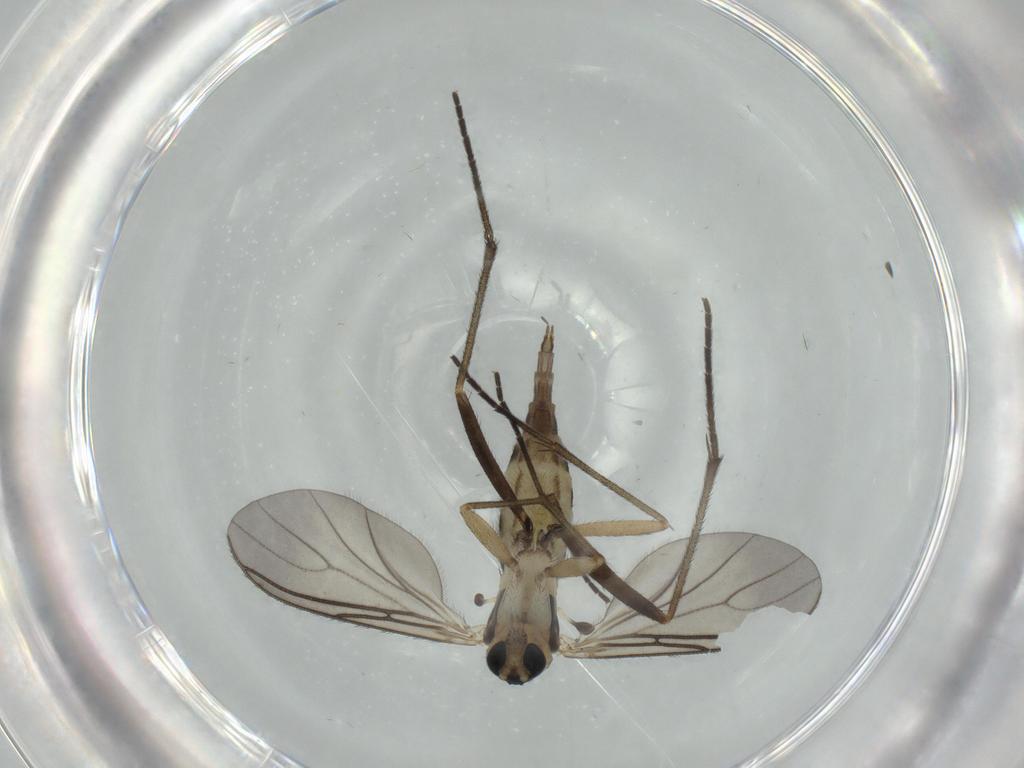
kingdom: Animalia
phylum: Arthropoda
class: Insecta
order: Diptera
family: Sciaridae
